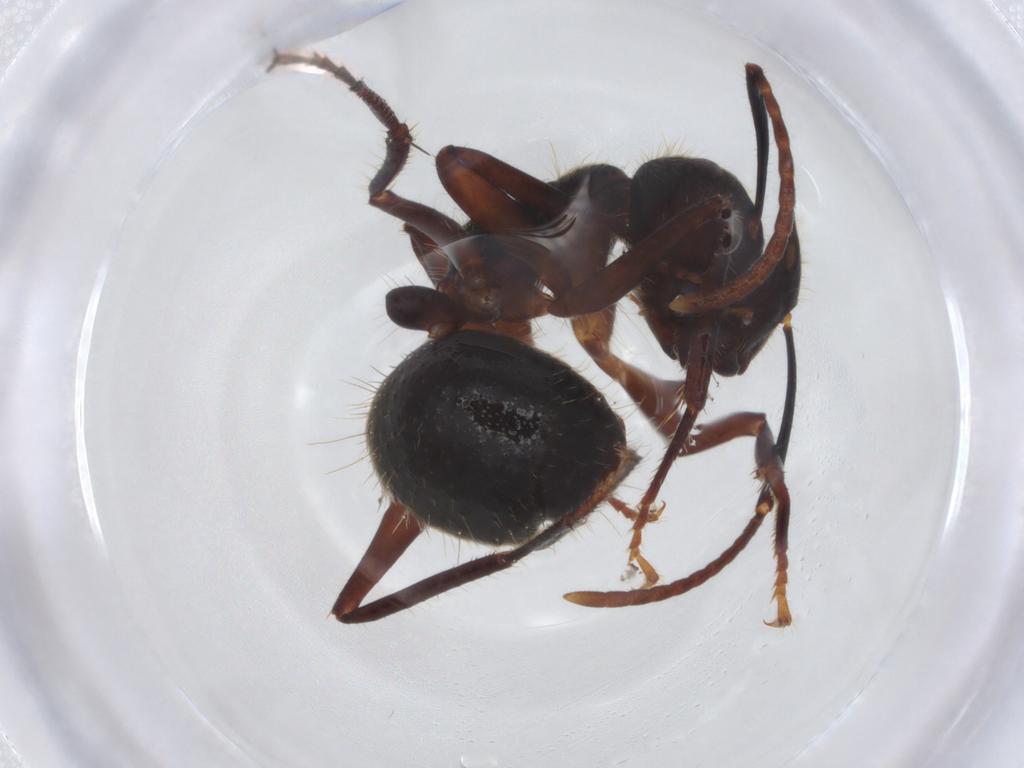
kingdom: Animalia
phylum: Arthropoda
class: Insecta
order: Hymenoptera
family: Formicidae
